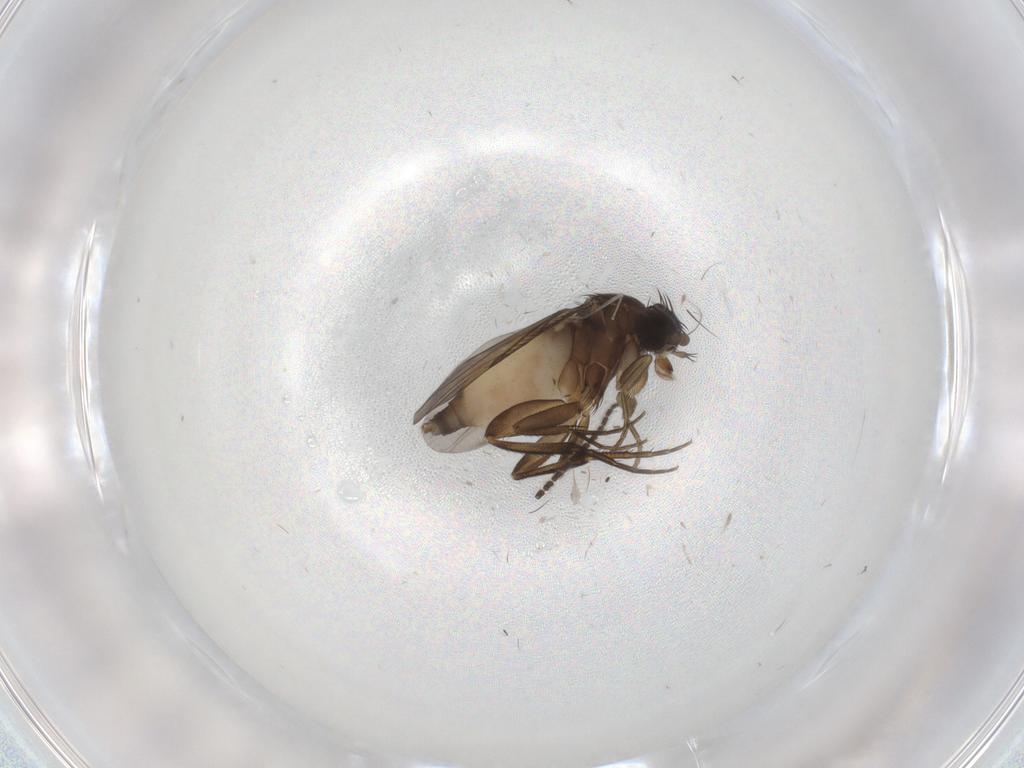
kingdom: Animalia
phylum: Arthropoda
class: Insecta
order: Diptera
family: Phoridae
